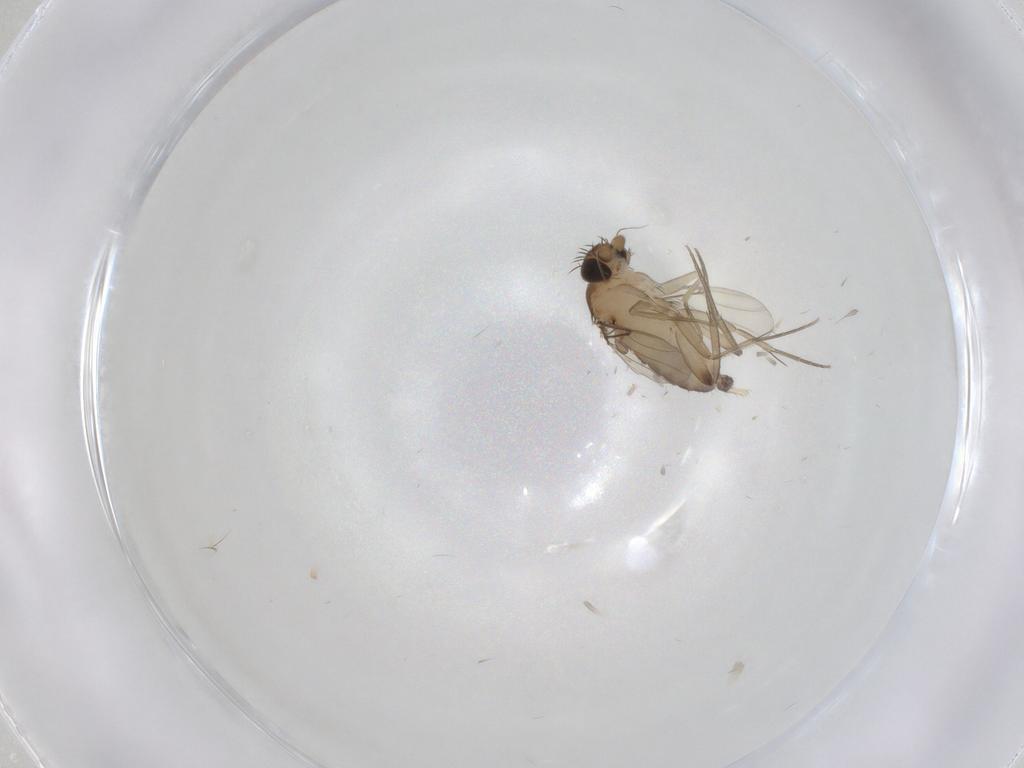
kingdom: Animalia
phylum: Arthropoda
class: Insecta
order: Diptera
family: Phoridae
